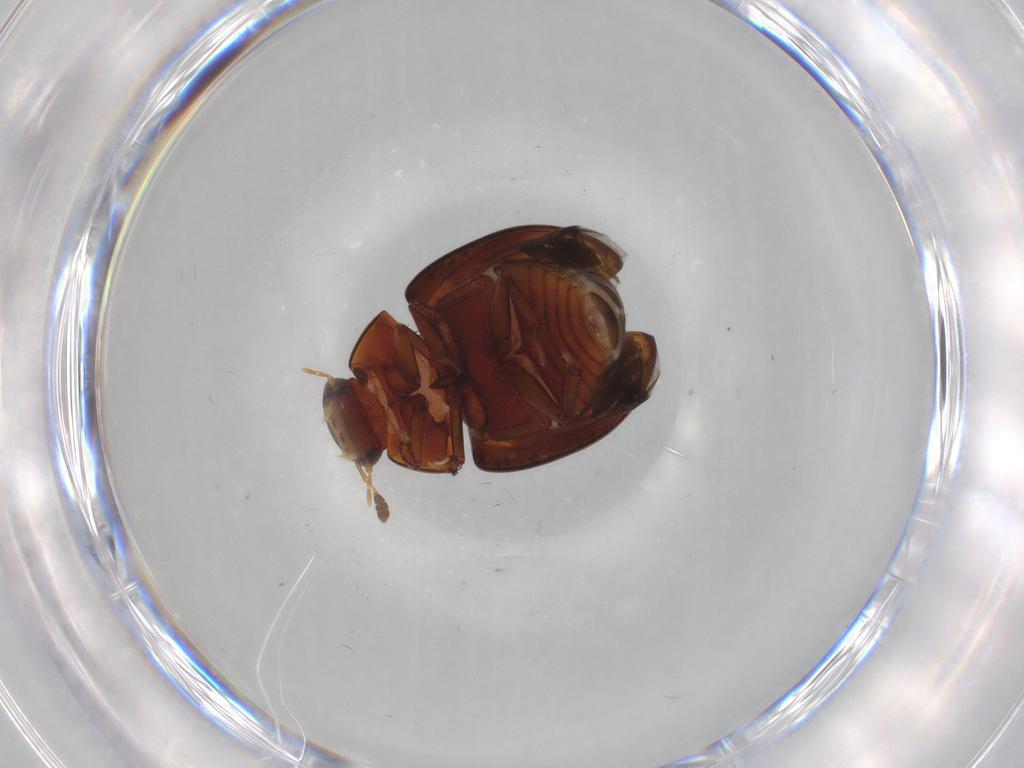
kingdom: Animalia
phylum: Arthropoda
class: Insecta
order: Coleoptera
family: Hydrophilidae
